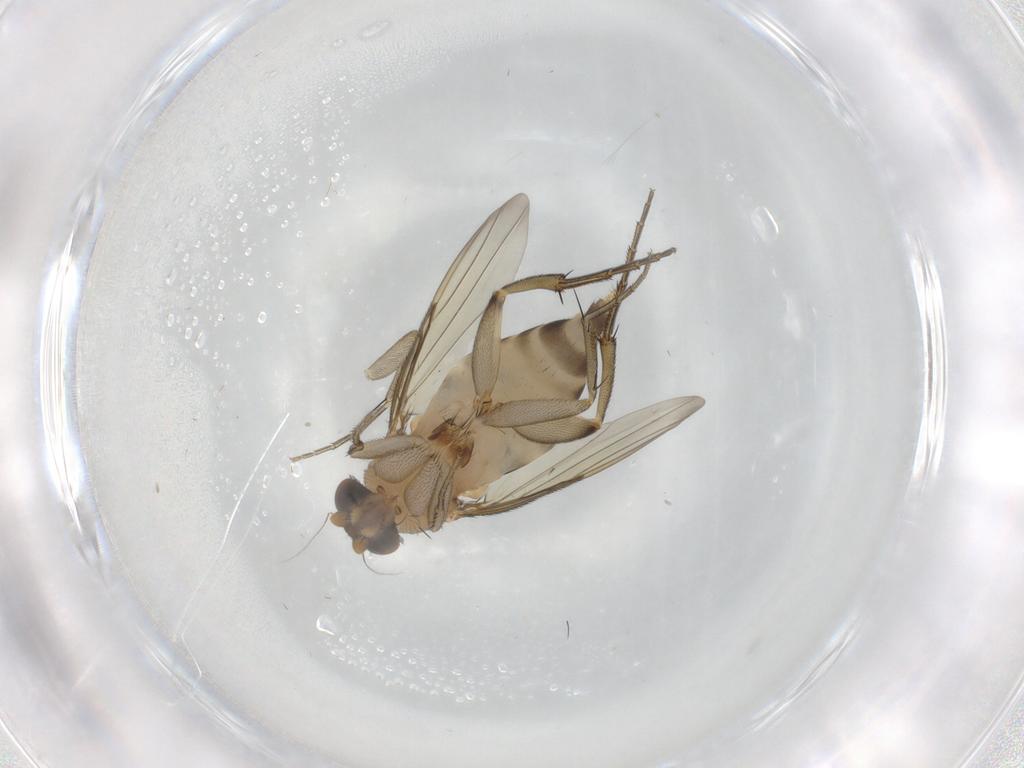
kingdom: Animalia
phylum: Arthropoda
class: Insecta
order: Diptera
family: Phoridae
